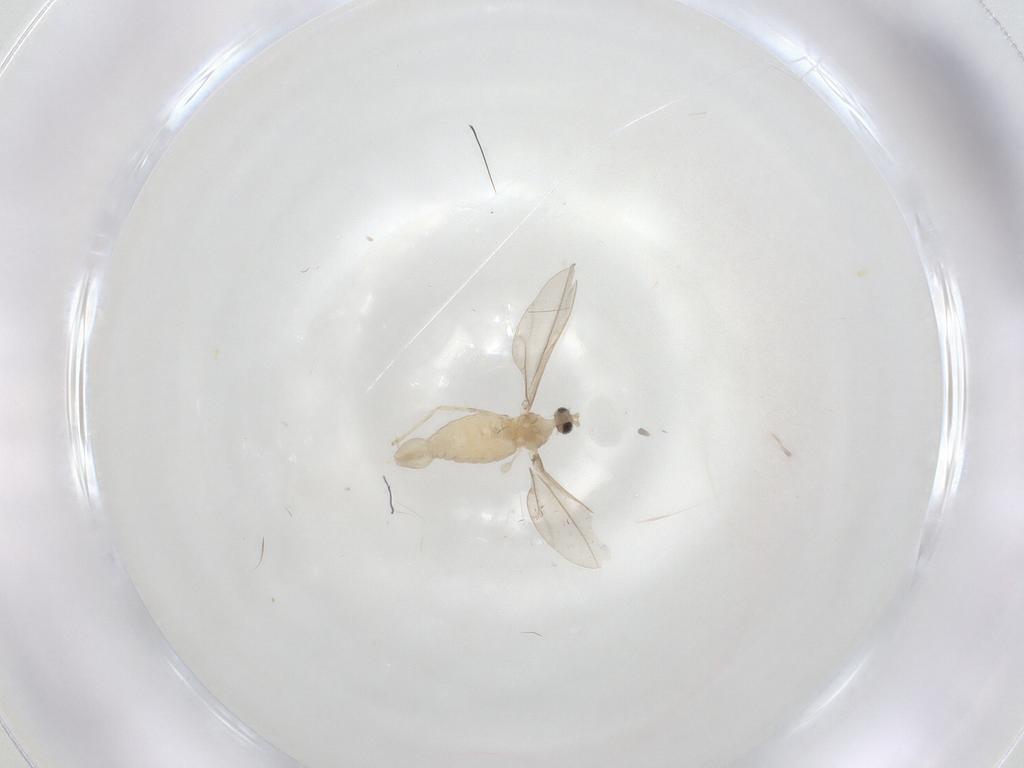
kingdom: Animalia
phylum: Arthropoda
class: Insecta
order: Diptera
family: Cecidomyiidae
